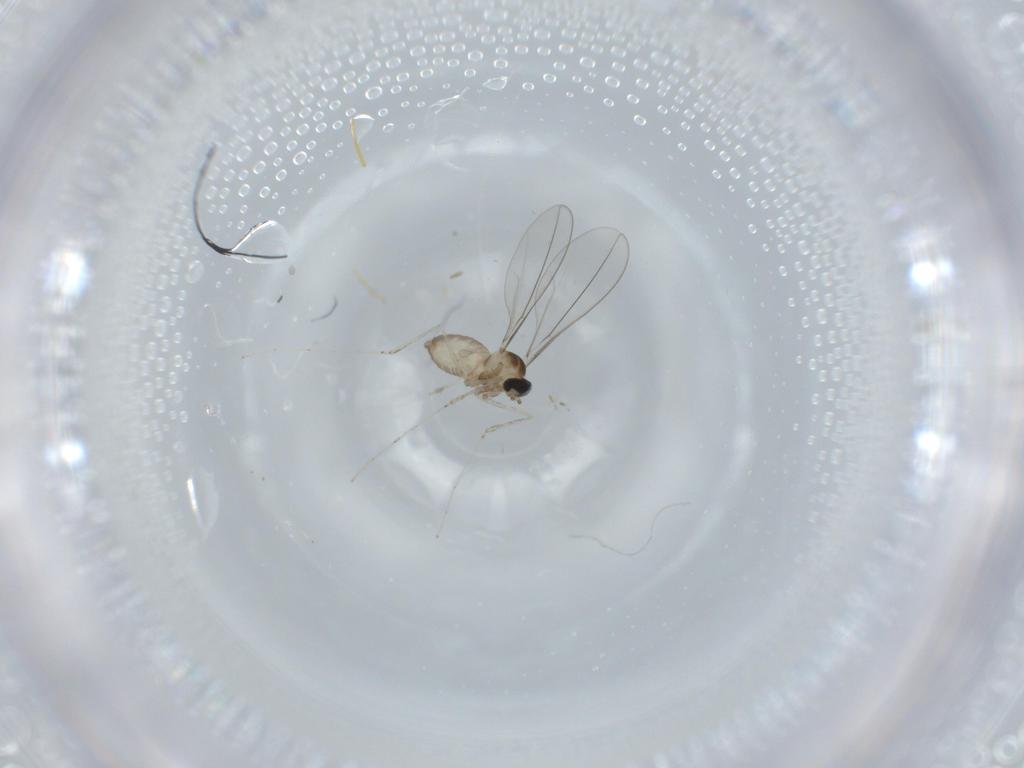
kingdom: Animalia
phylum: Arthropoda
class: Insecta
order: Diptera
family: Cecidomyiidae
